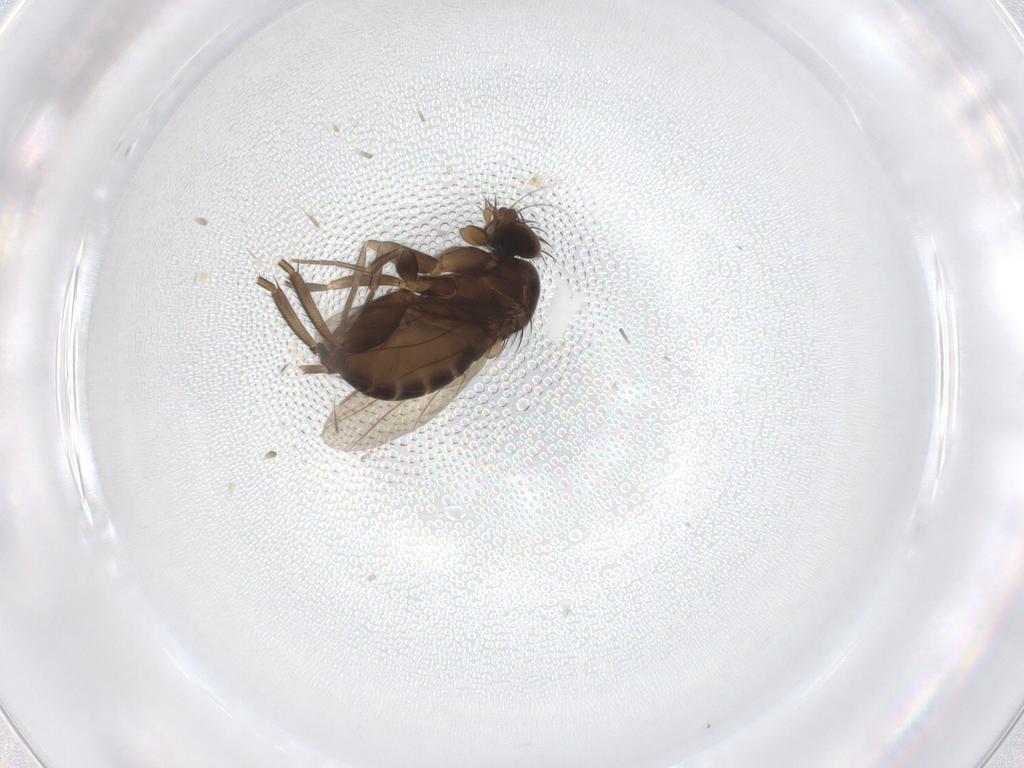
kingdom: Animalia
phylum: Arthropoda
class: Insecta
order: Diptera
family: Phoridae
